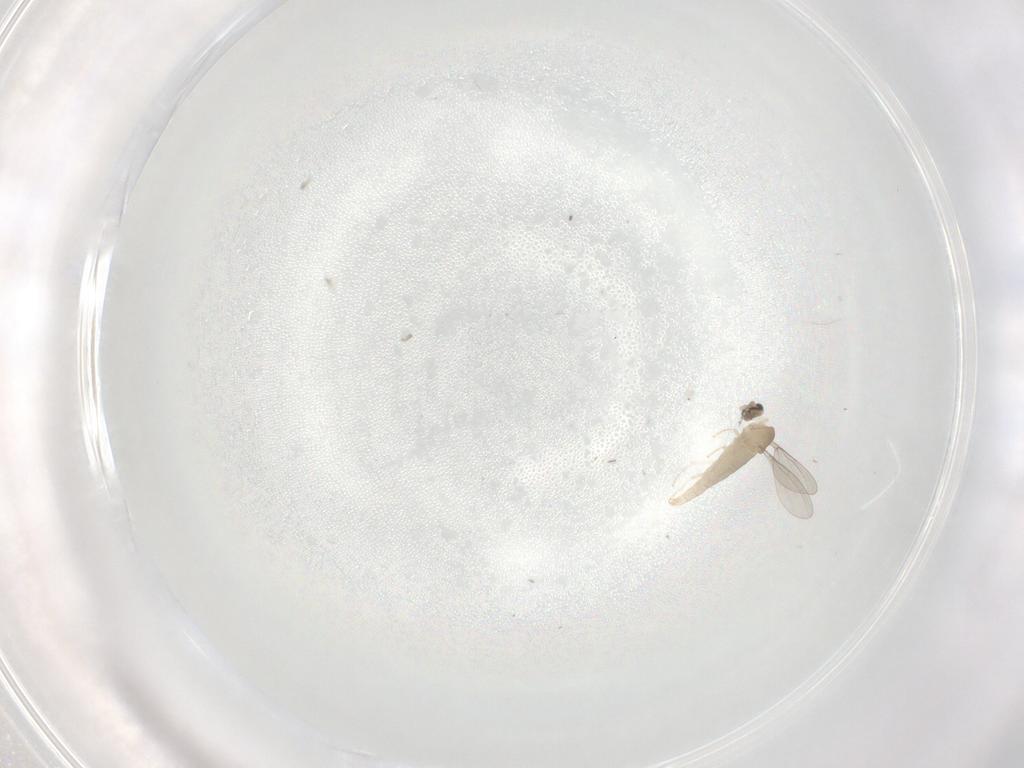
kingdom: Animalia
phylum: Arthropoda
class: Insecta
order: Diptera
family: Cecidomyiidae
